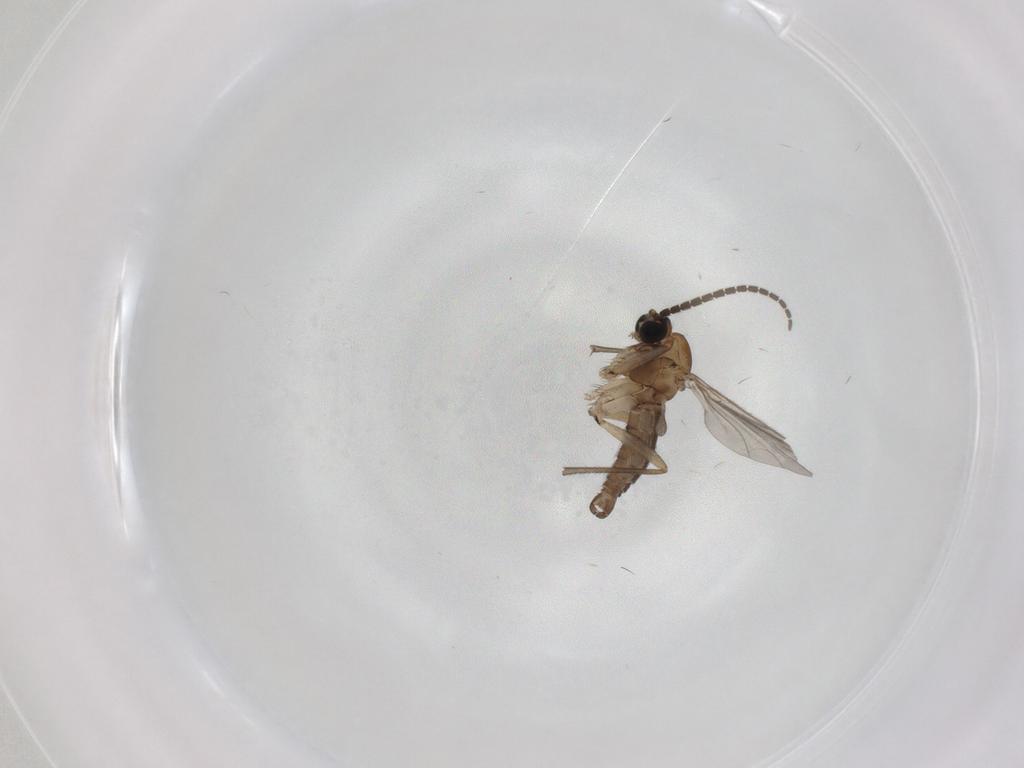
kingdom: Animalia
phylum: Arthropoda
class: Insecta
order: Diptera
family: Sciaridae
